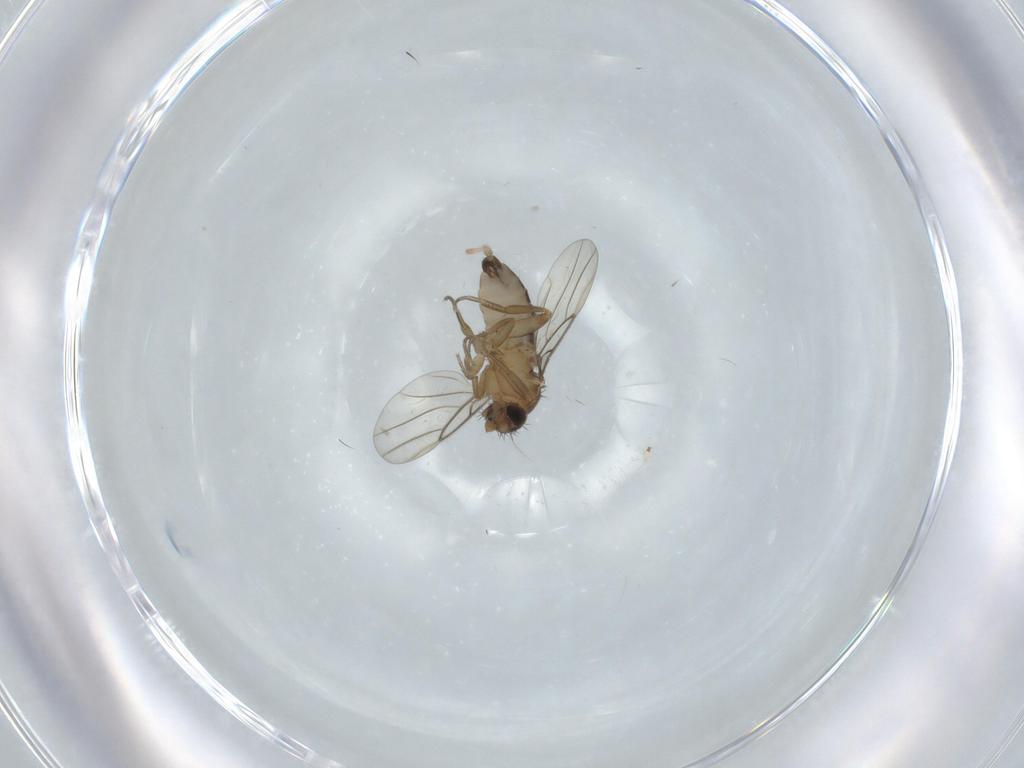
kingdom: Animalia
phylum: Arthropoda
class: Insecta
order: Diptera
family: Phoridae
